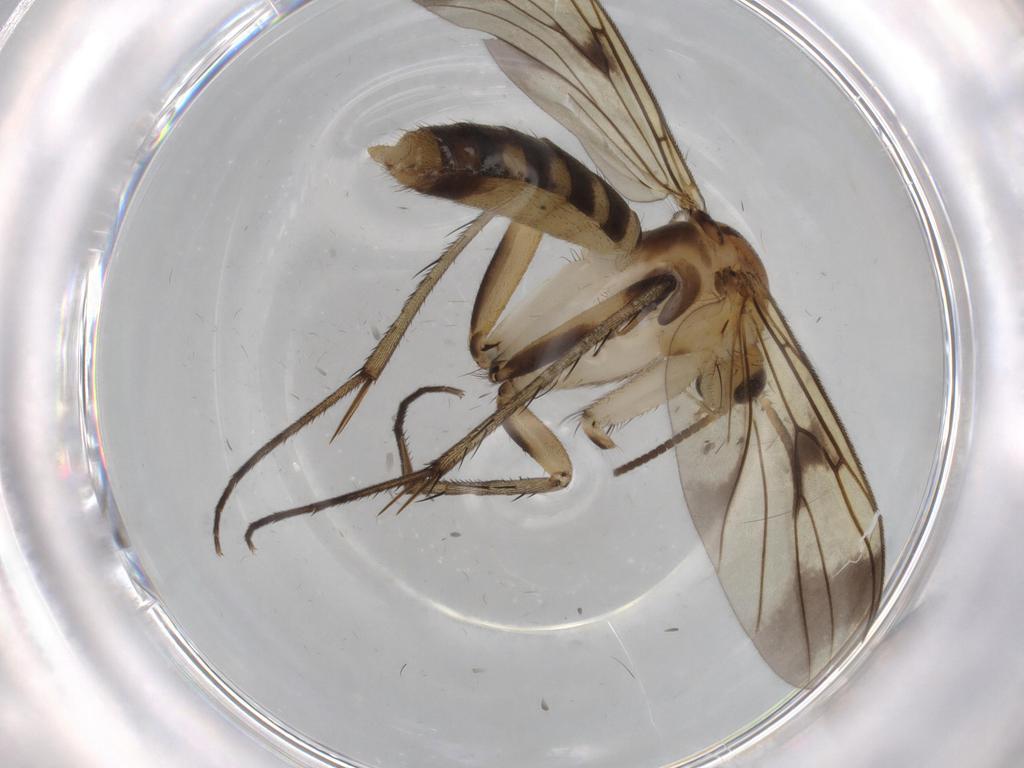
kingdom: Animalia
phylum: Arthropoda
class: Insecta
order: Diptera
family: Mycetophilidae
